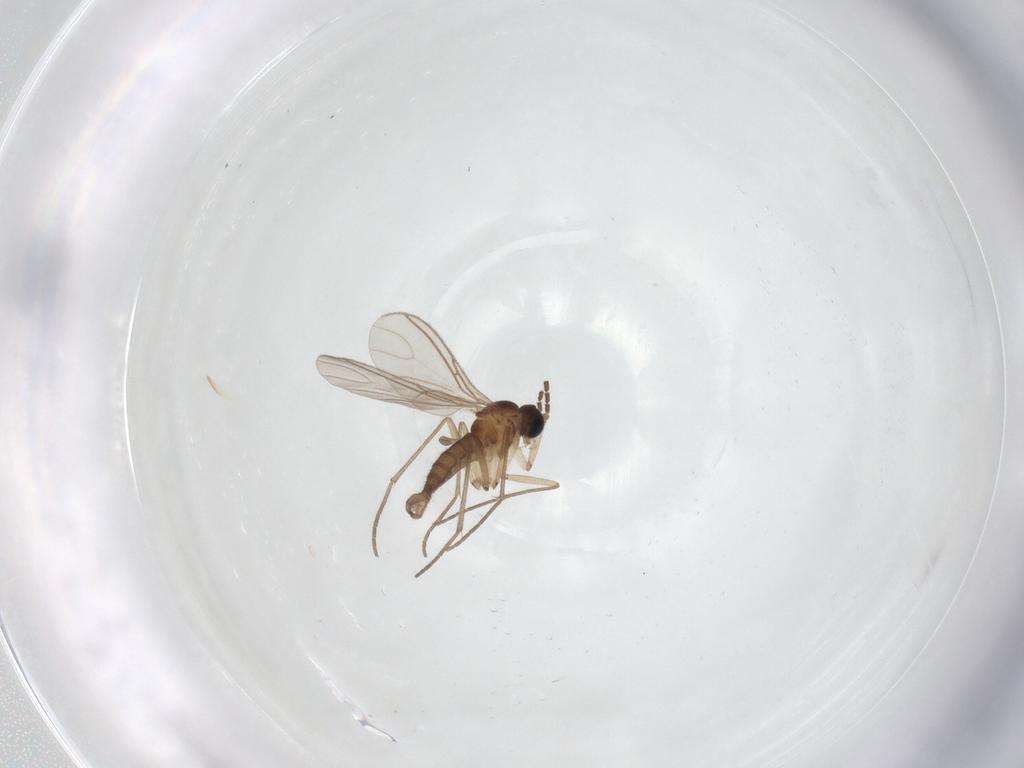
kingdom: Animalia
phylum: Arthropoda
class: Insecta
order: Diptera
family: Sciaridae
